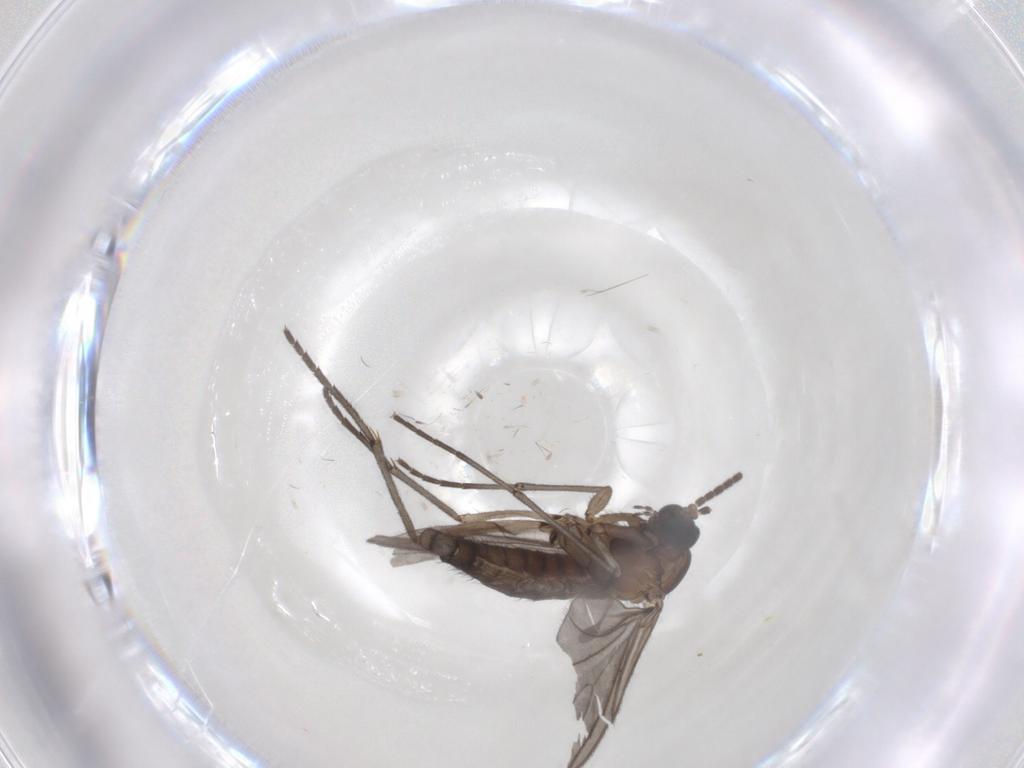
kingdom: Animalia
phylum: Arthropoda
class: Insecta
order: Diptera
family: Sciaridae
